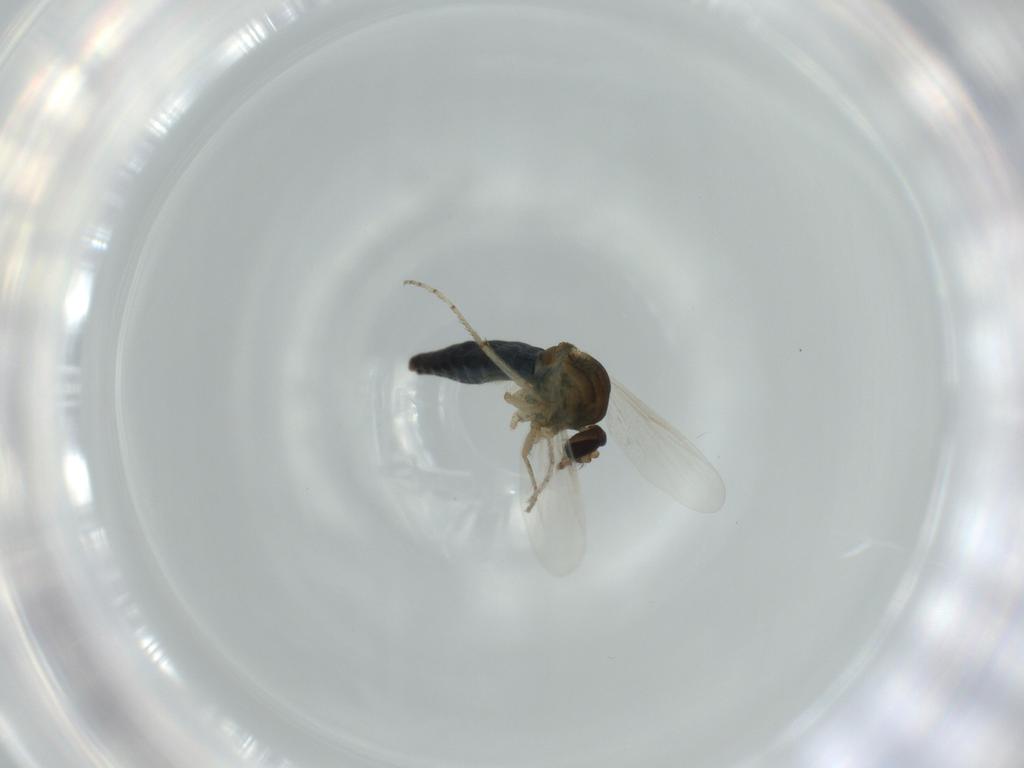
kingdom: Animalia
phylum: Arthropoda
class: Insecta
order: Diptera
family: Ceratopogonidae
